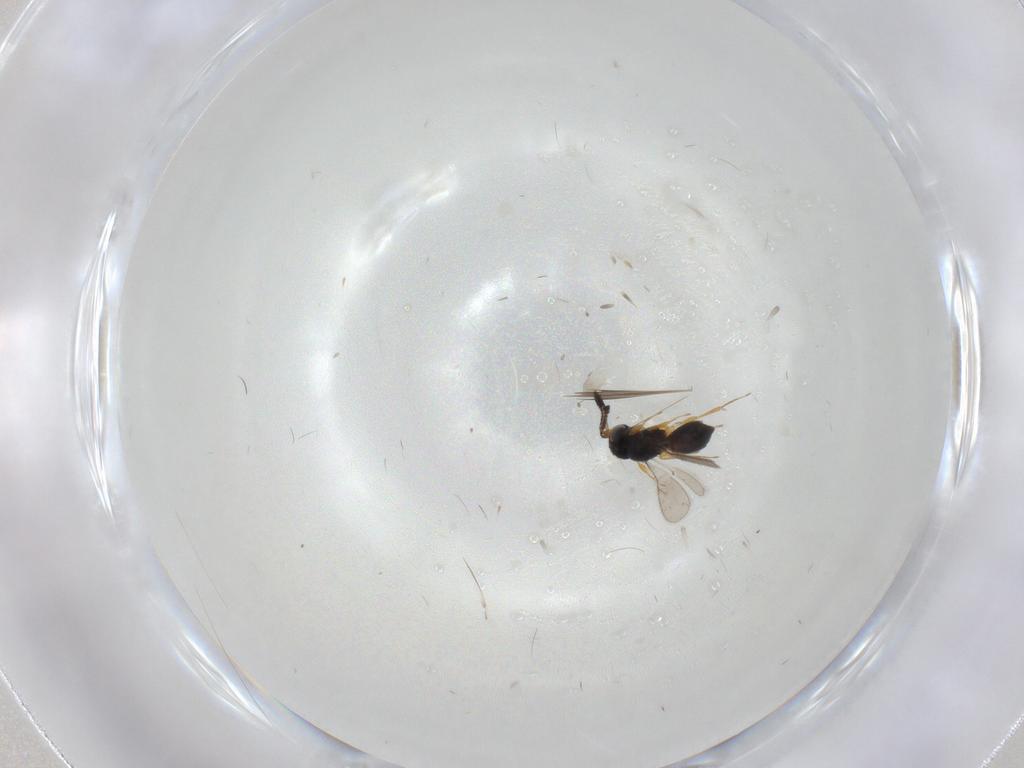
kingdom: Animalia
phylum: Arthropoda
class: Insecta
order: Hymenoptera
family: Scelionidae
